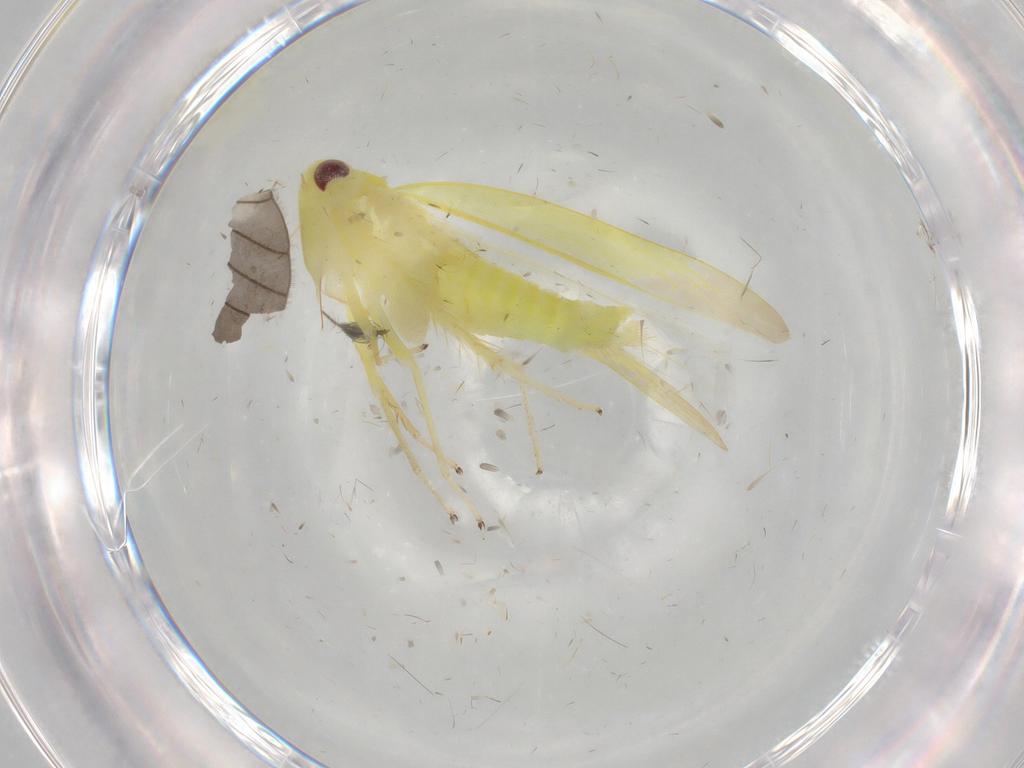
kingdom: Animalia
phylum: Arthropoda
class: Insecta
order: Hemiptera
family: Cicadellidae
